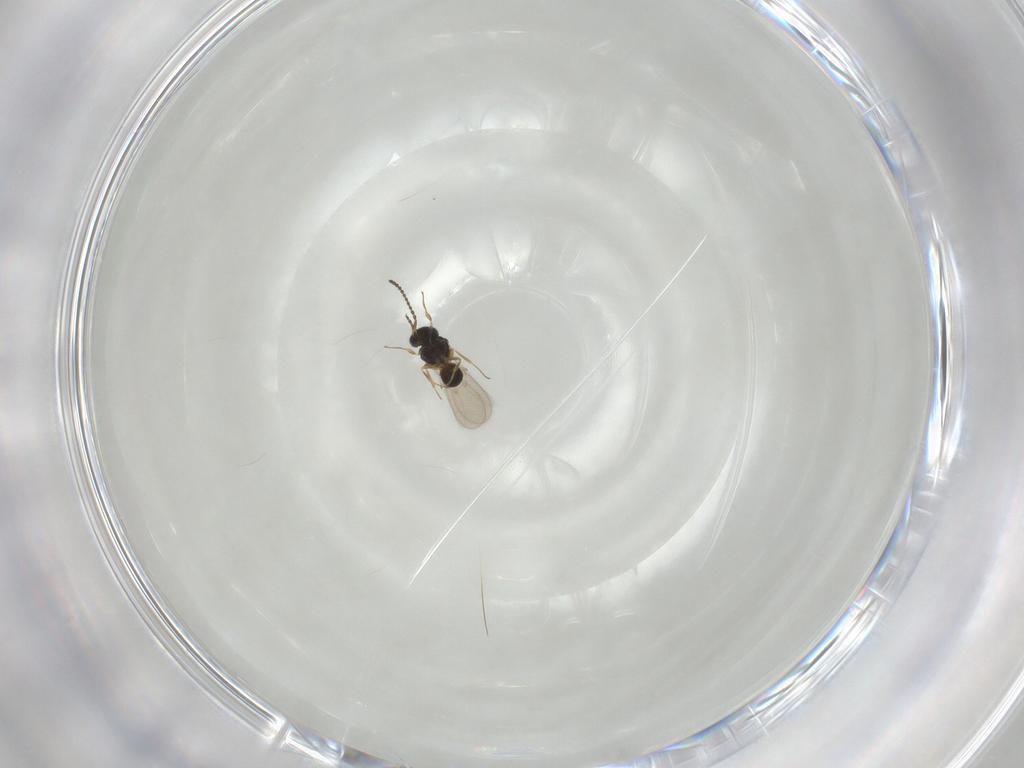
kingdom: Animalia
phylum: Arthropoda
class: Insecta
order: Hymenoptera
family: Scelionidae
